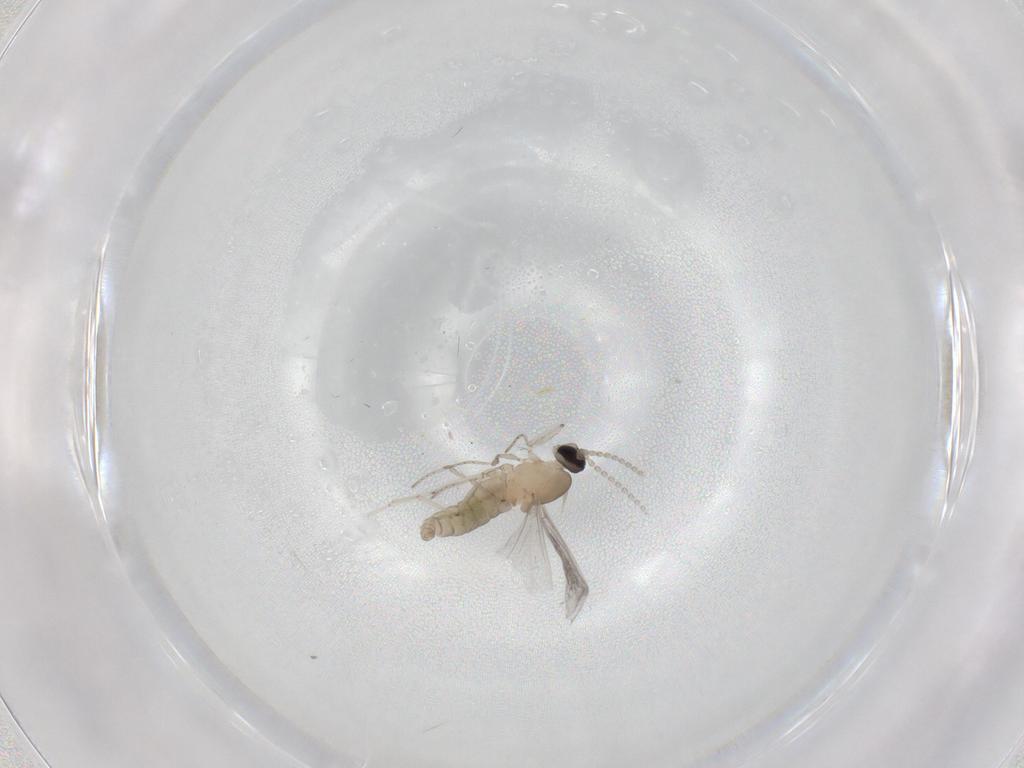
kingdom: Animalia
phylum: Arthropoda
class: Insecta
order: Diptera
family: Cecidomyiidae
